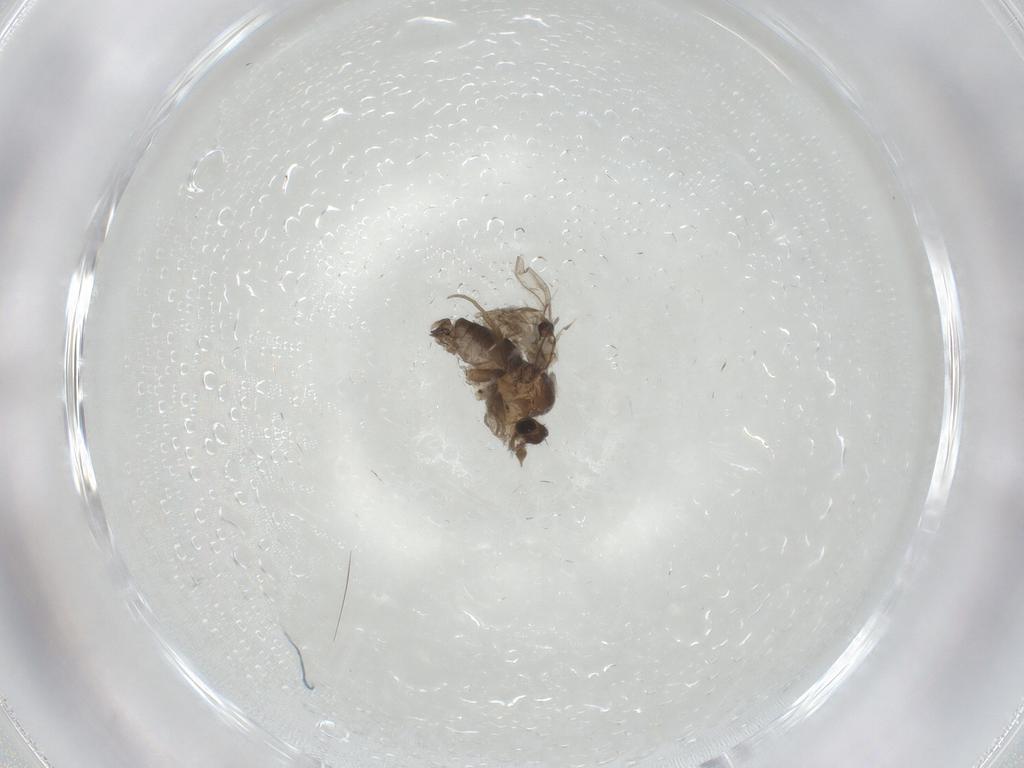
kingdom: Animalia
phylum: Arthropoda
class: Insecta
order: Diptera
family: Phoridae
